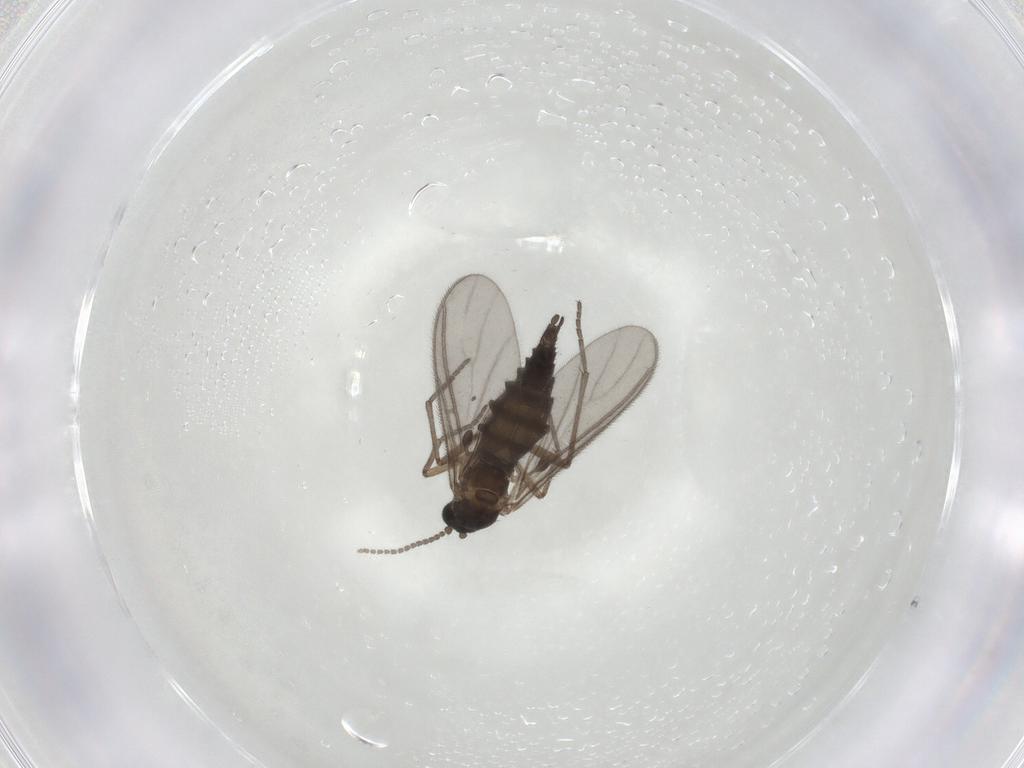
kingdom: Animalia
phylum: Arthropoda
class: Insecta
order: Diptera
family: Sciaridae
